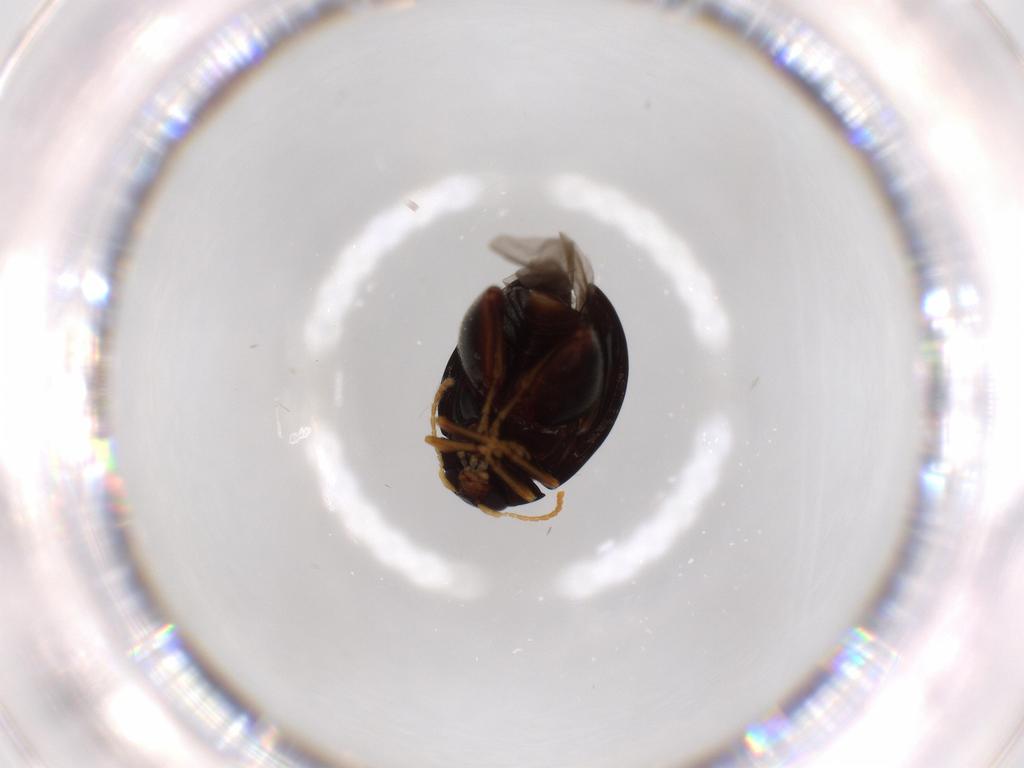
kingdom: Animalia
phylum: Arthropoda
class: Insecta
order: Coleoptera
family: Chrysomelidae
